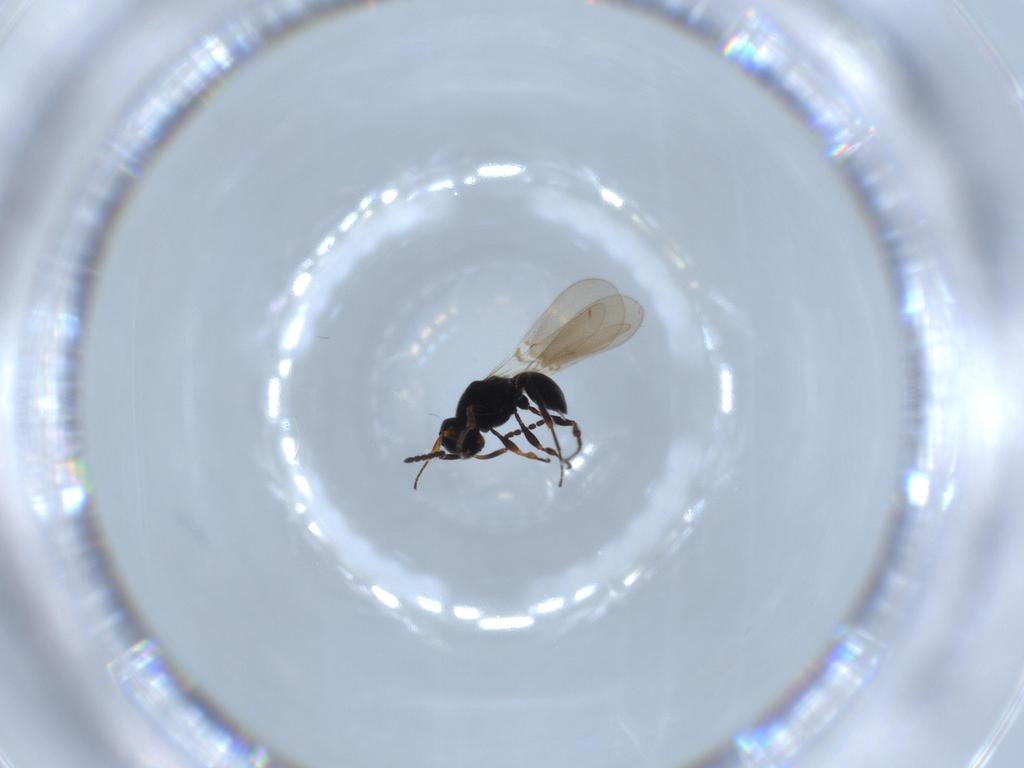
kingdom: Animalia
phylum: Arthropoda
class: Insecta
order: Hymenoptera
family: Platygastridae
